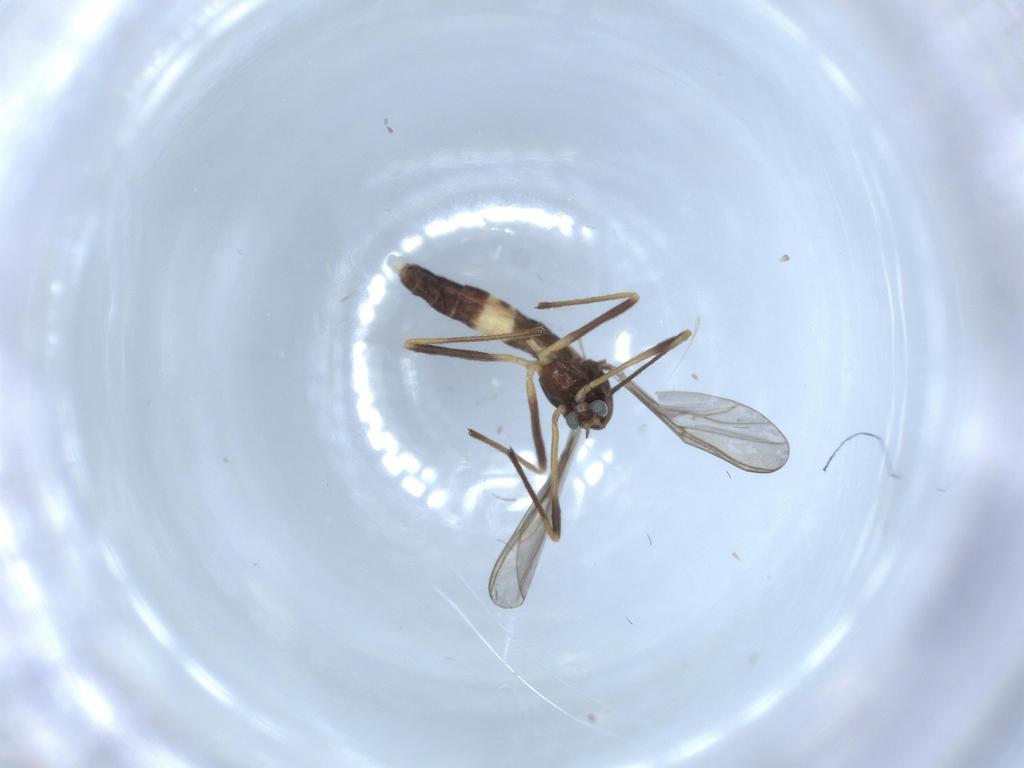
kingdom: Animalia
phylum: Arthropoda
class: Insecta
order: Diptera
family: Chironomidae
